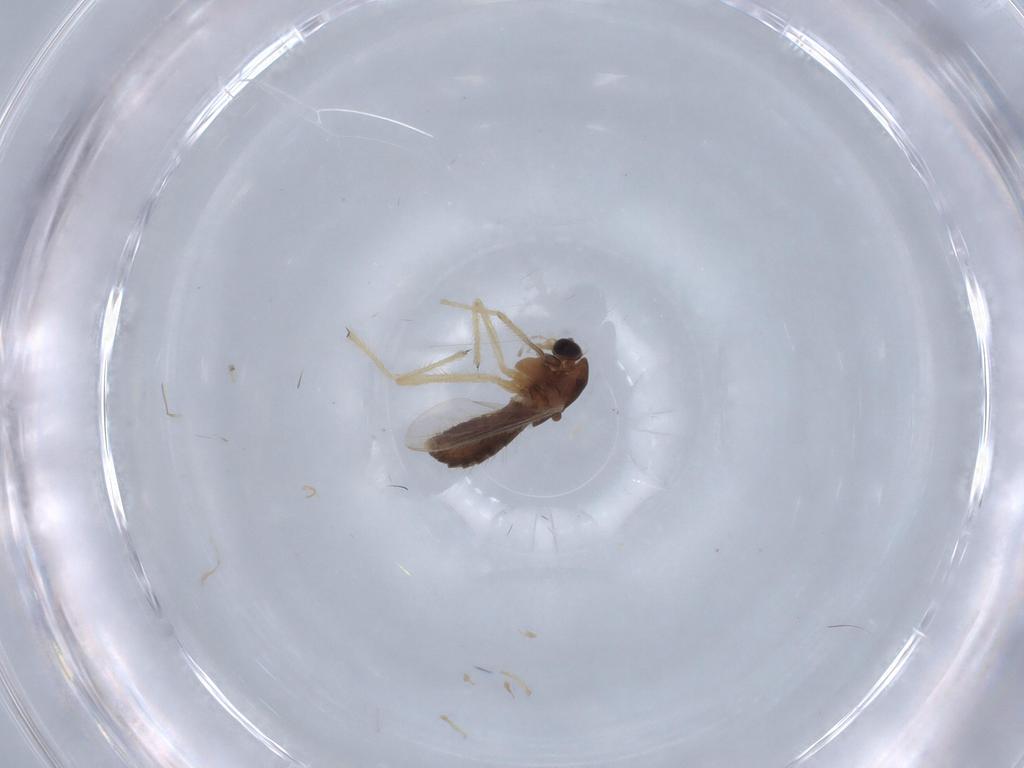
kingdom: Animalia
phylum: Arthropoda
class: Insecta
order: Diptera
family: Chironomidae
